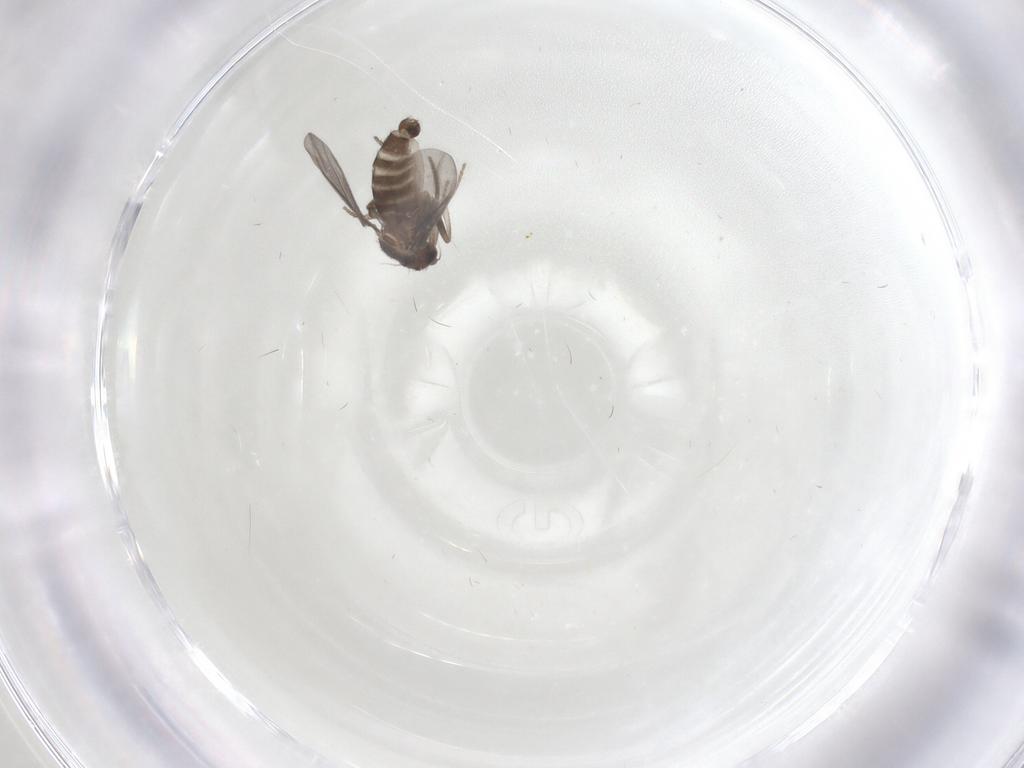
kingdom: Animalia
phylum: Arthropoda
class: Insecta
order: Diptera
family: Phoridae
